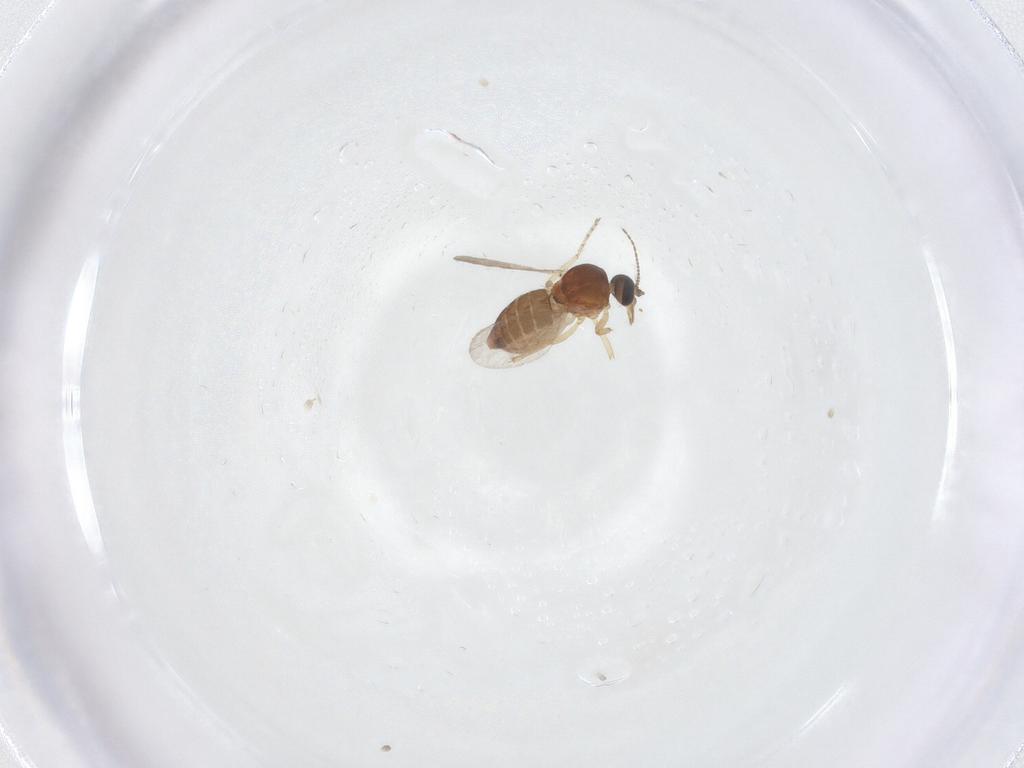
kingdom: Animalia
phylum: Arthropoda
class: Insecta
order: Diptera
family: Ceratopogonidae
